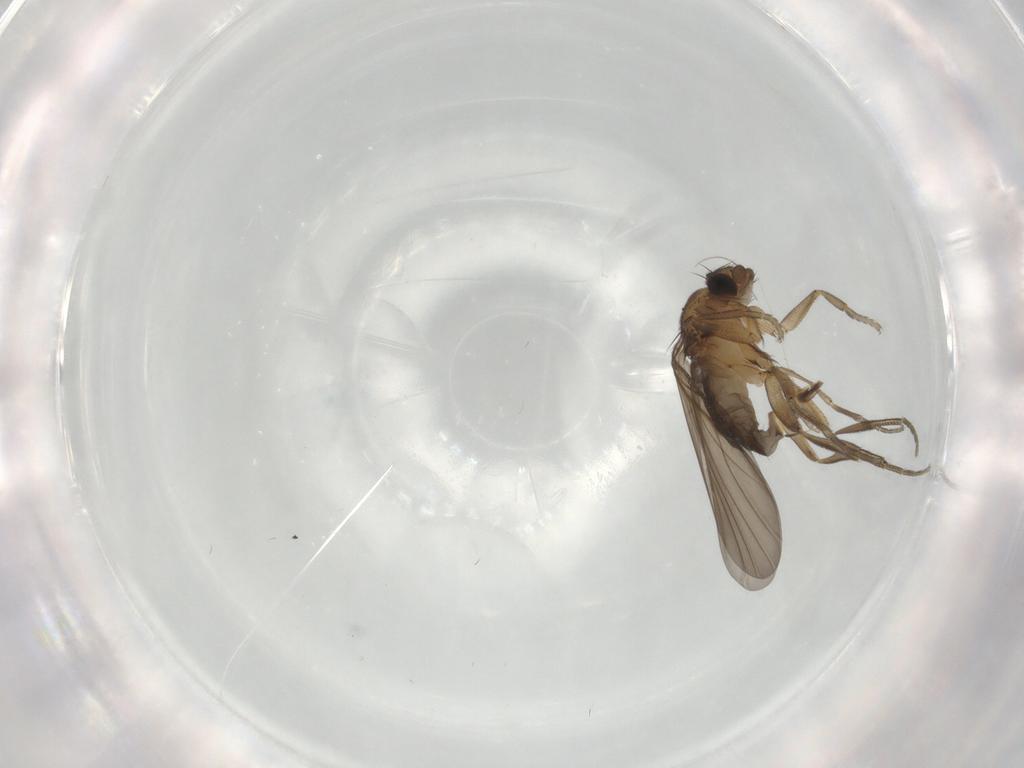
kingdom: Animalia
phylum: Arthropoda
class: Insecta
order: Diptera
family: Phoridae
